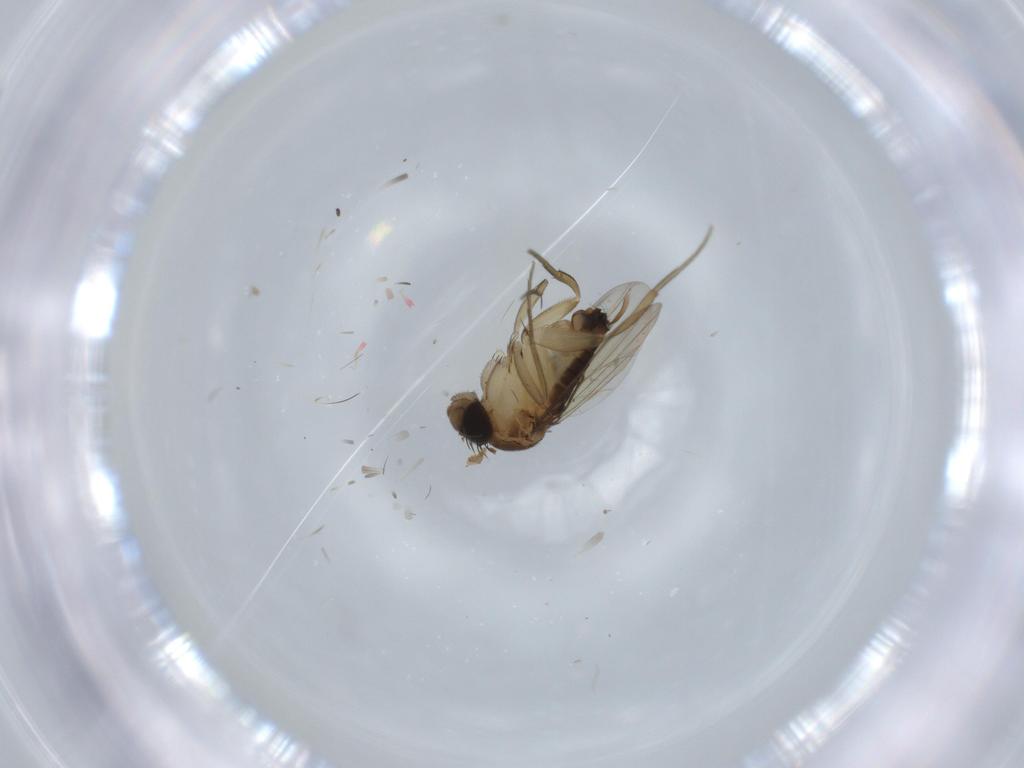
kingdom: Animalia
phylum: Arthropoda
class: Insecta
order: Diptera
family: Phoridae
